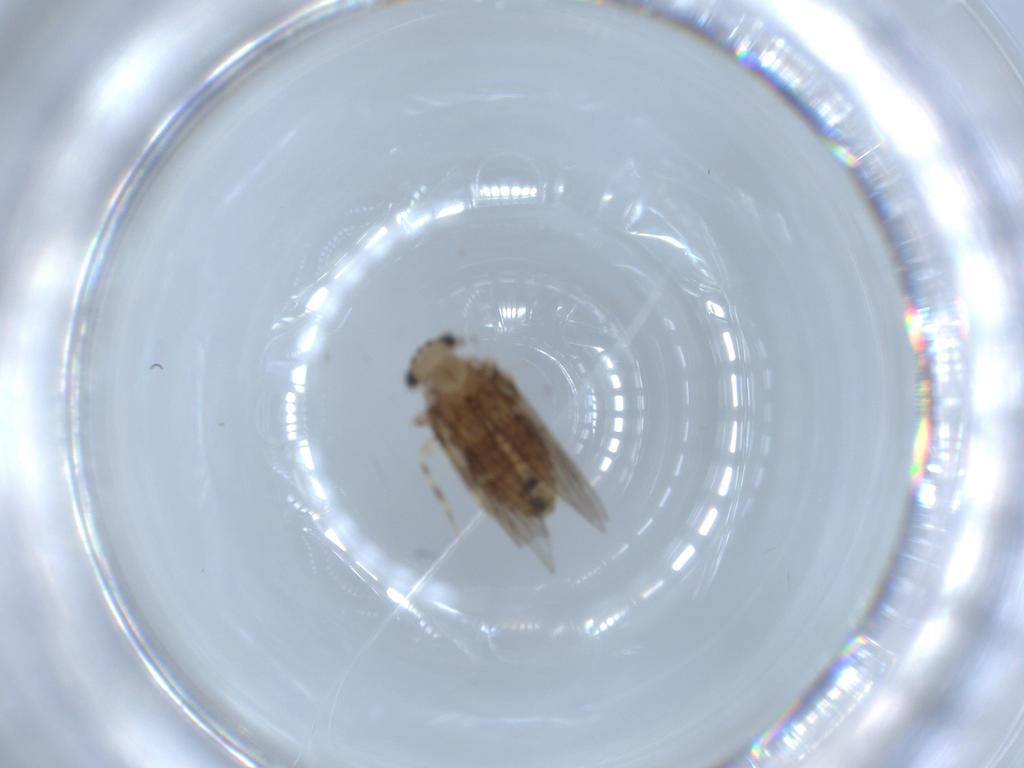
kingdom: Animalia
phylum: Arthropoda
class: Insecta
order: Psocodea
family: Lepidopsocidae
